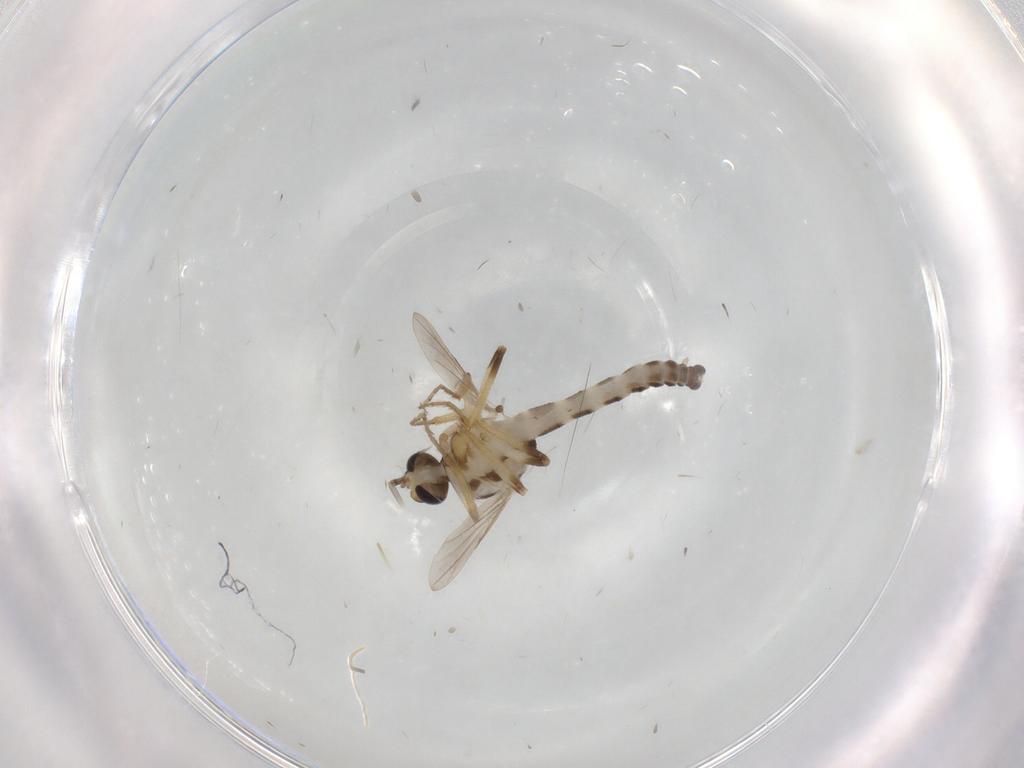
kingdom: Animalia
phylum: Arthropoda
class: Insecta
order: Diptera
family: Ceratopogonidae
